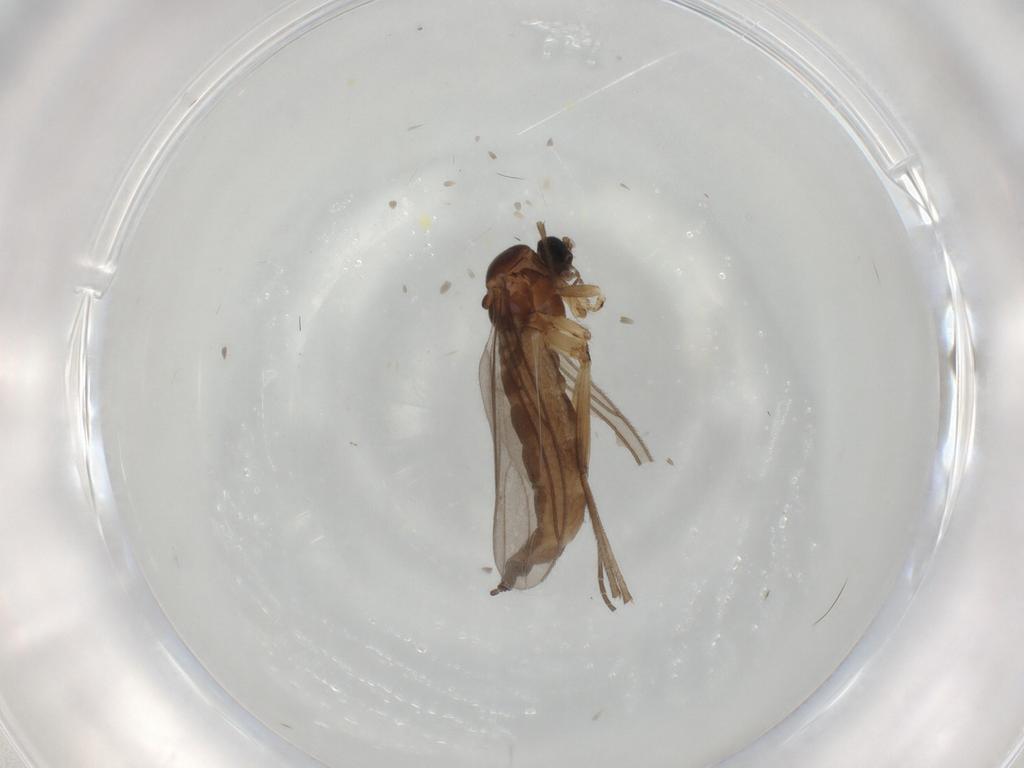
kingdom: Animalia
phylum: Arthropoda
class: Insecta
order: Diptera
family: Sciaridae
